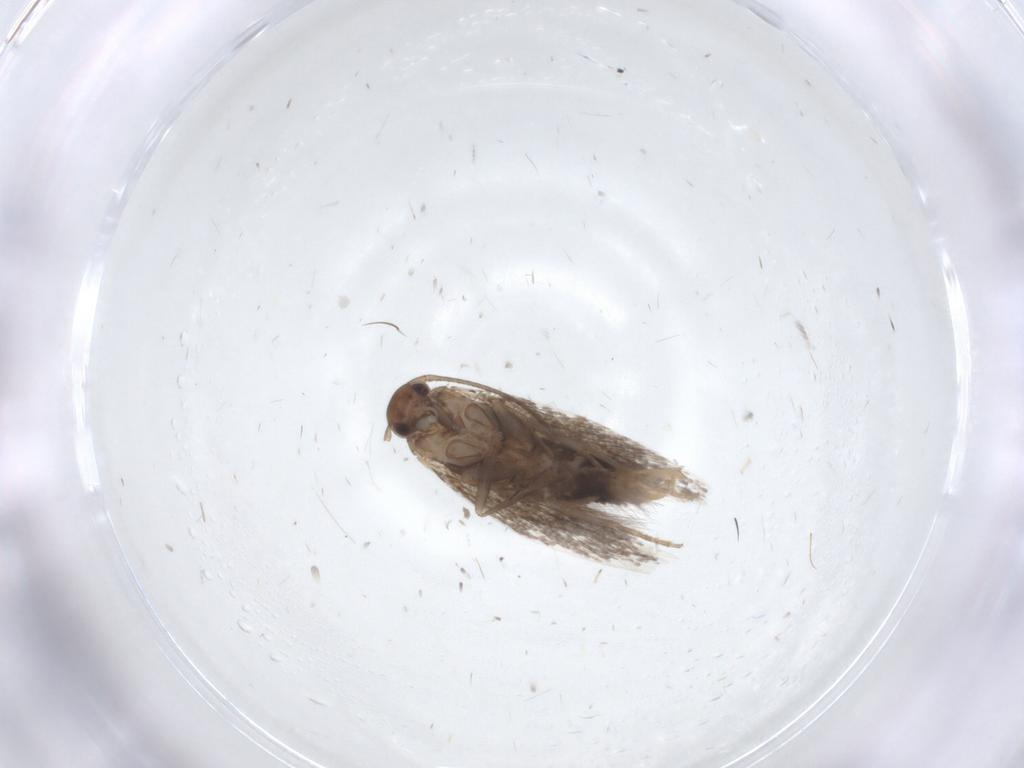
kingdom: Animalia
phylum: Arthropoda
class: Insecta
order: Lepidoptera
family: Elachistidae
